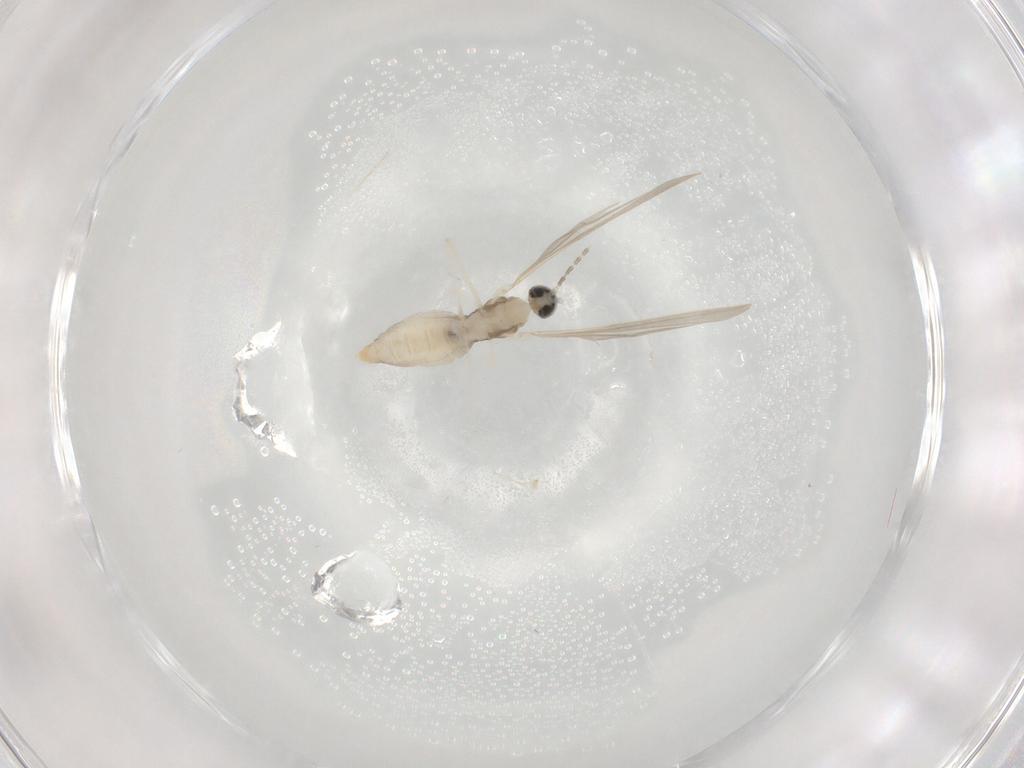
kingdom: Animalia
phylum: Arthropoda
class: Insecta
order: Diptera
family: Cecidomyiidae
